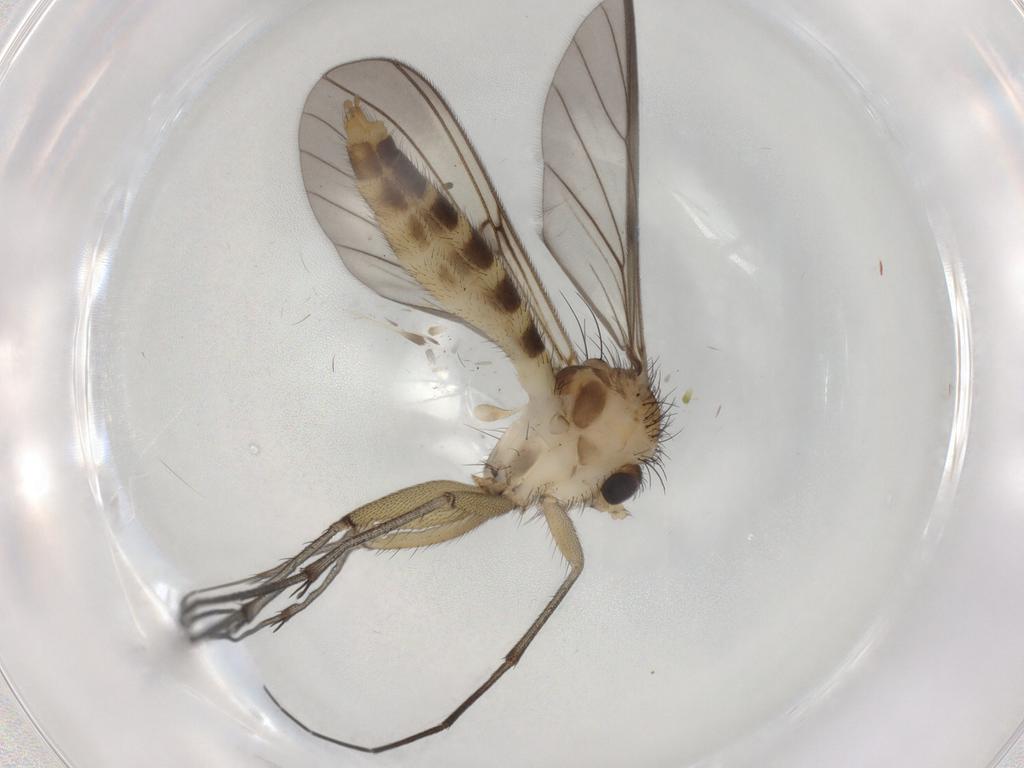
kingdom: Animalia
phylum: Arthropoda
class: Insecta
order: Diptera
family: Mycetophilidae
